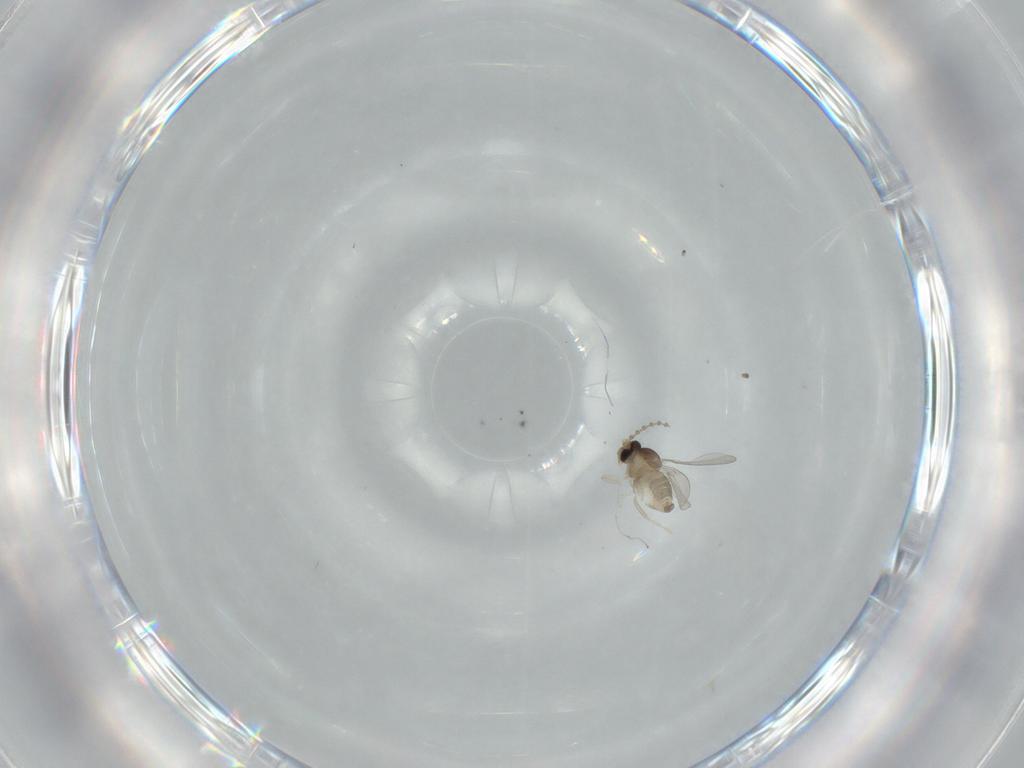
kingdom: Animalia
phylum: Arthropoda
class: Insecta
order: Diptera
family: Cecidomyiidae
